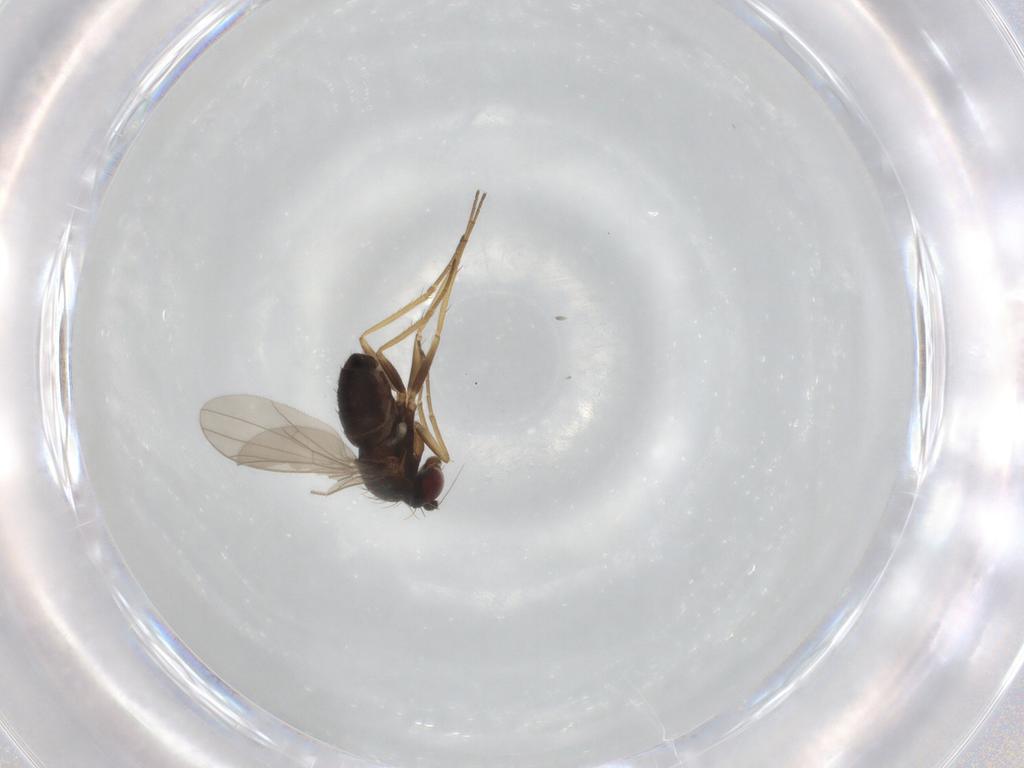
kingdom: Animalia
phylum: Arthropoda
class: Insecta
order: Diptera
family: Dolichopodidae
